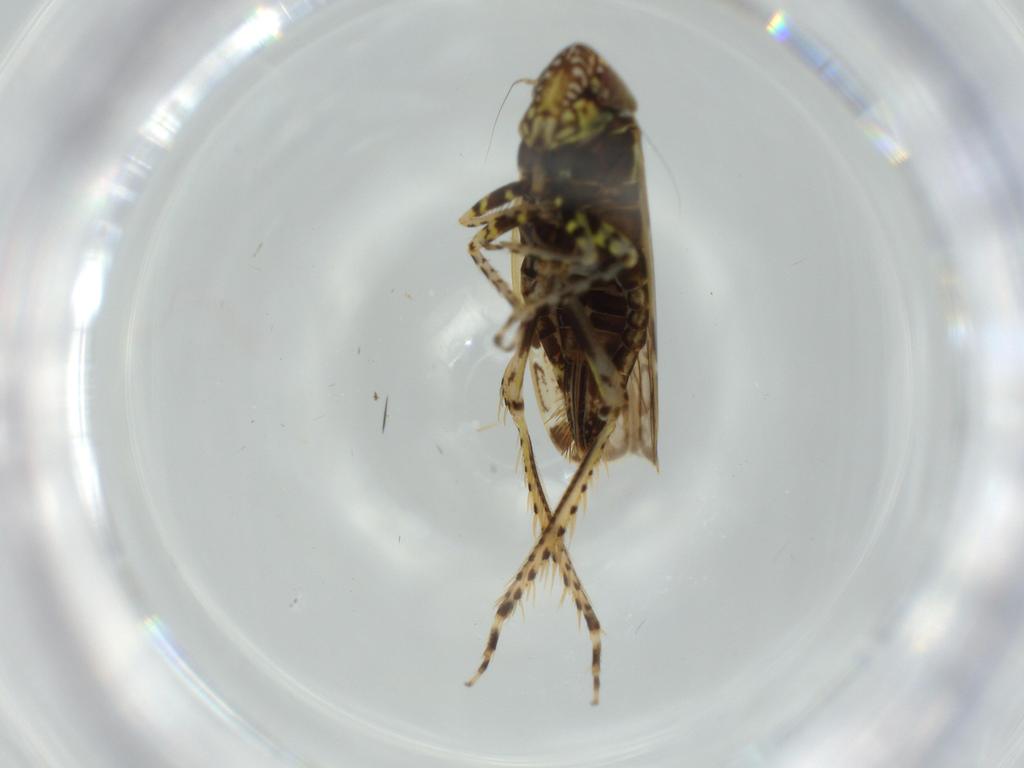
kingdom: Animalia
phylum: Arthropoda
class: Insecta
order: Hemiptera
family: Cicadellidae
